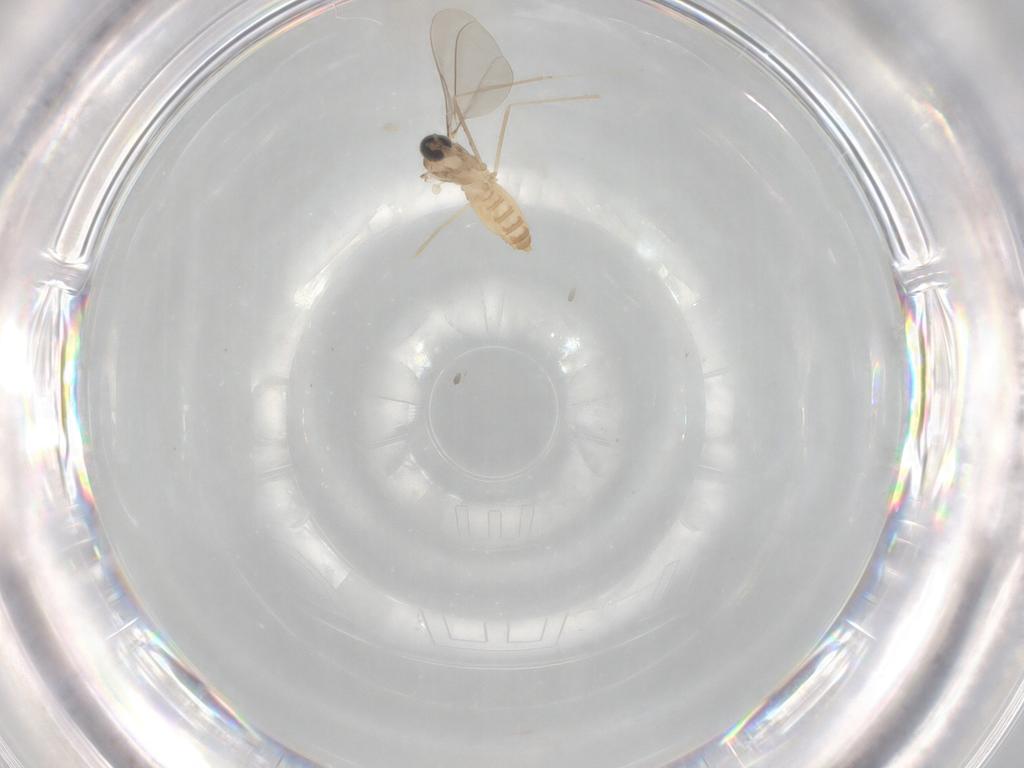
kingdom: Animalia
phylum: Arthropoda
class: Insecta
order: Diptera
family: Cecidomyiidae
